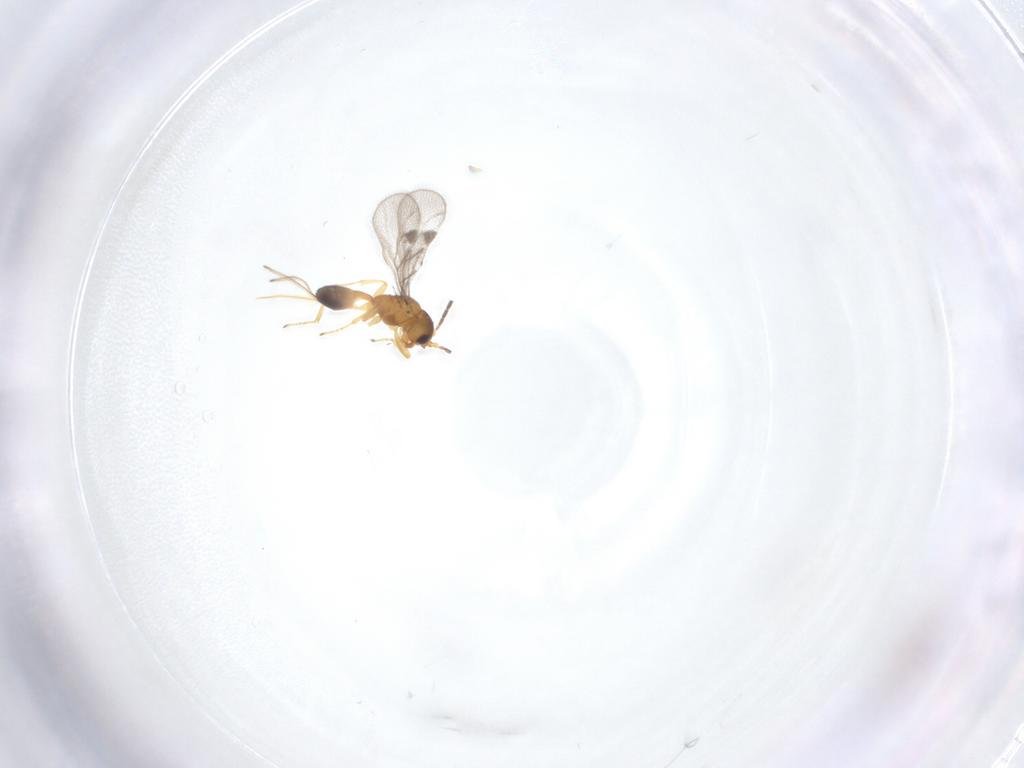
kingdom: Animalia
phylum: Arthropoda
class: Insecta
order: Hymenoptera
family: Braconidae
